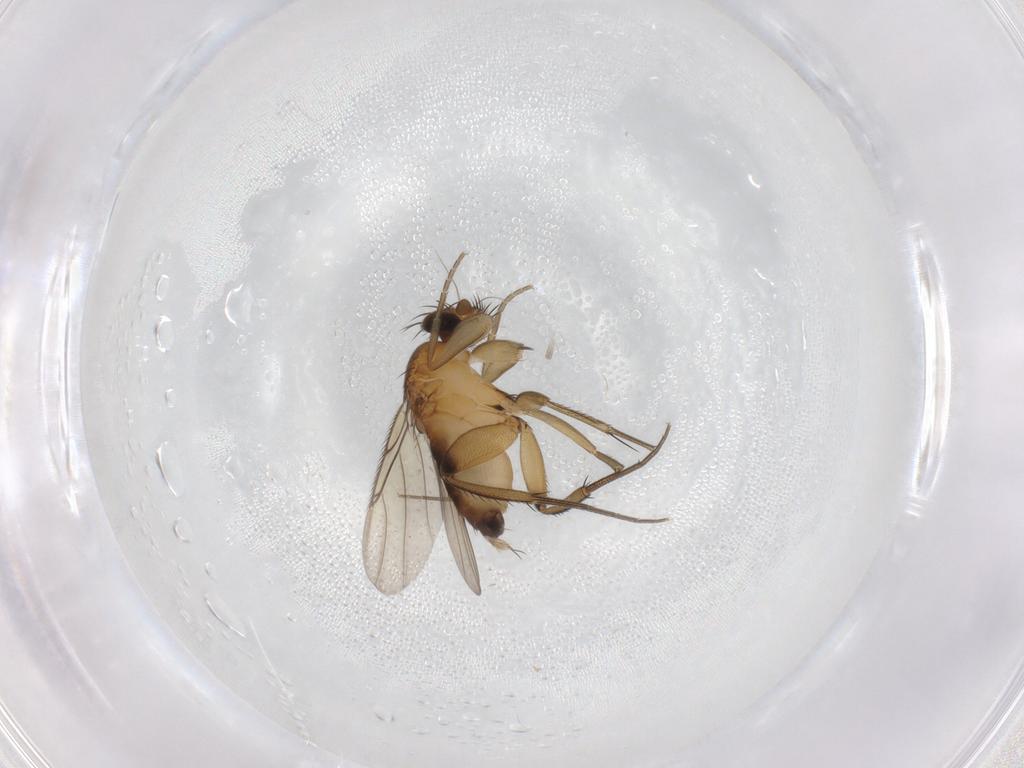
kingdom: Animalia
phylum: Arthropoda
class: Insecta
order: Diptera
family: Phoridae
